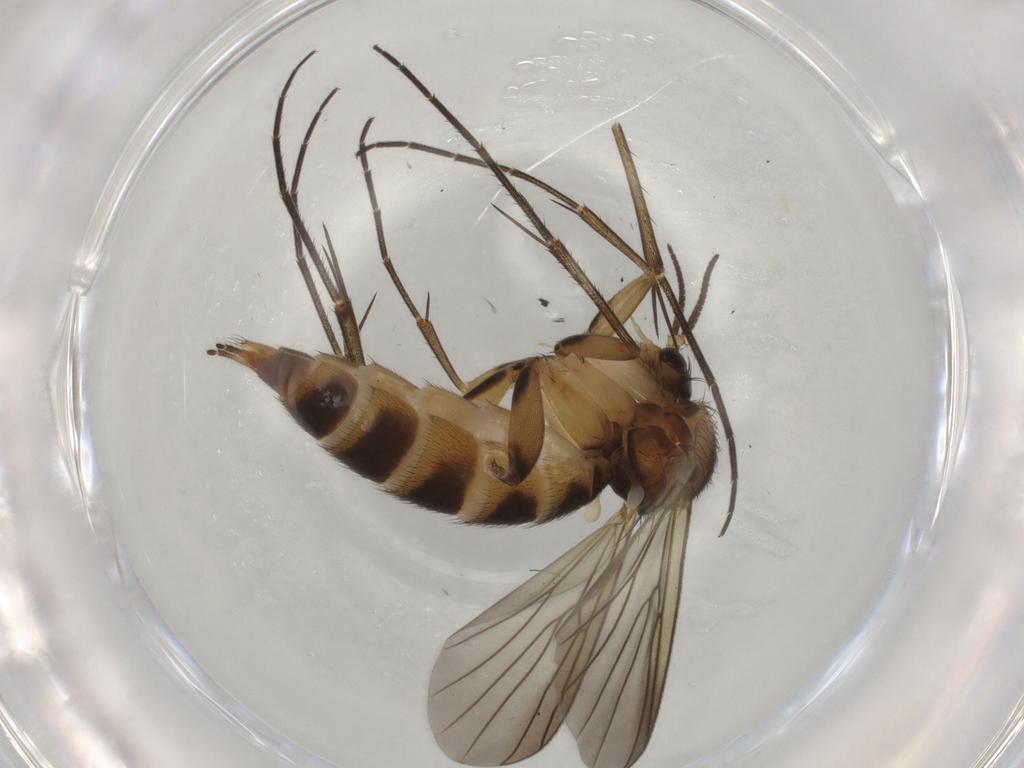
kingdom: Animalia
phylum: Arthropoda
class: Insecta
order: Diptera
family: Mycetophilidae
